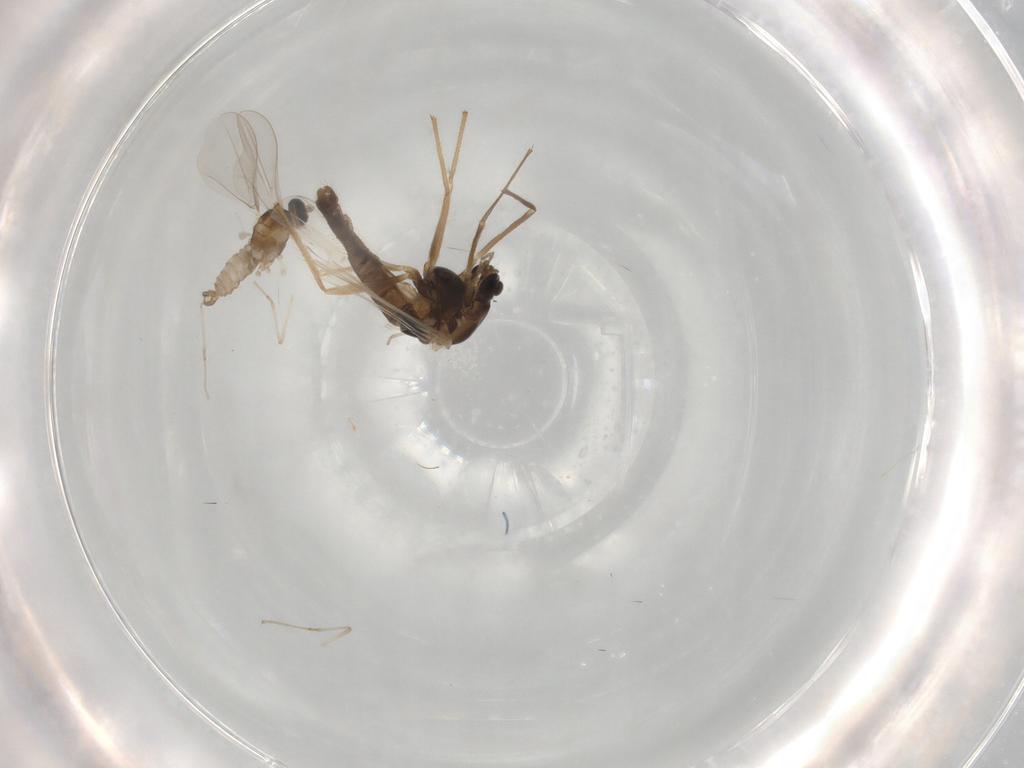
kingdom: Animalia
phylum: Arthropoda
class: Insecta
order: Diptera
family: Chironomidae
